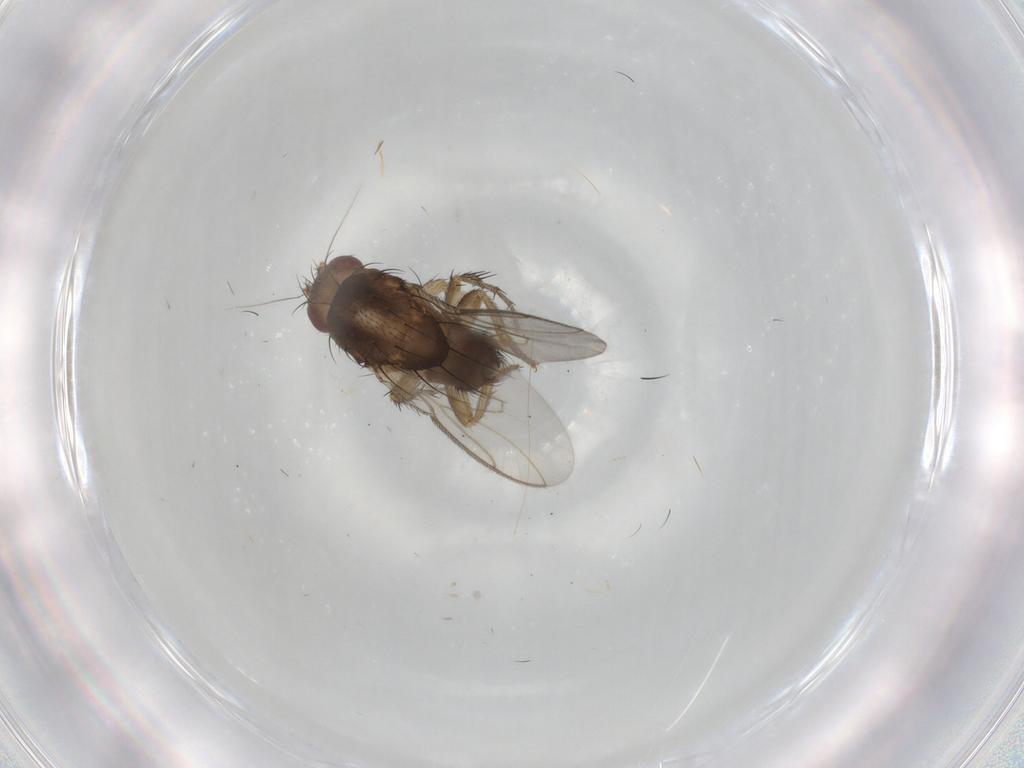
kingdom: Animalia
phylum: Arthropoda
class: Insecta
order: Diptera
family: Sphaeroceridae
